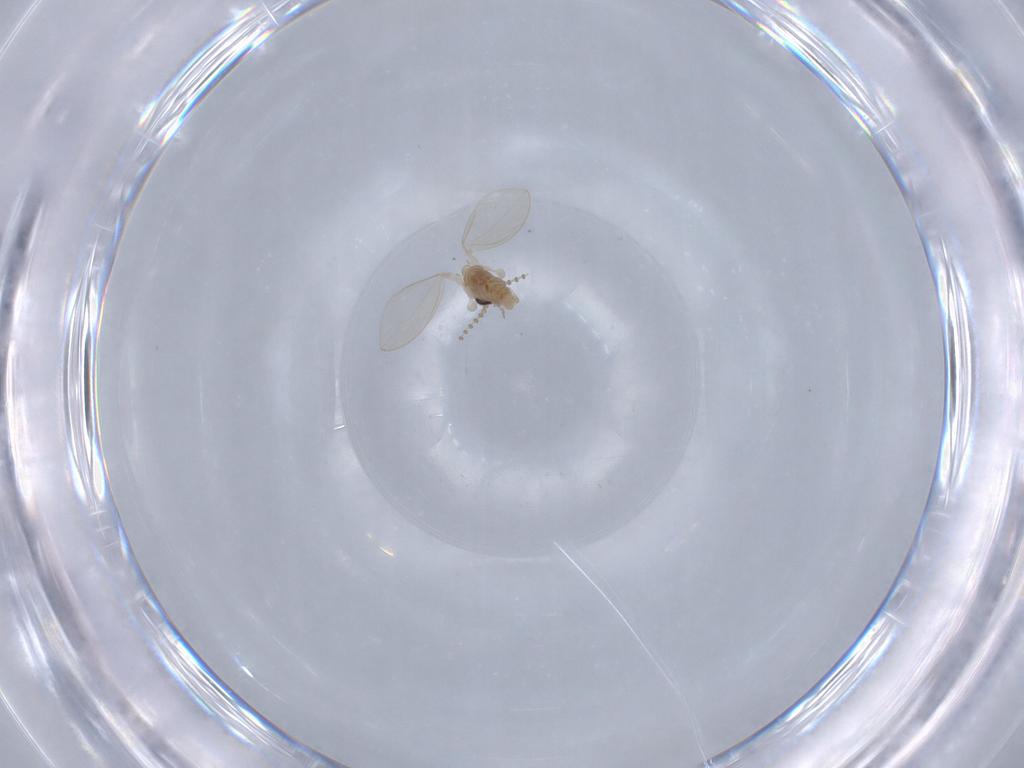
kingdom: Animalia
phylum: Arthropoda
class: Insecta
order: Diptera
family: Psychodidae
